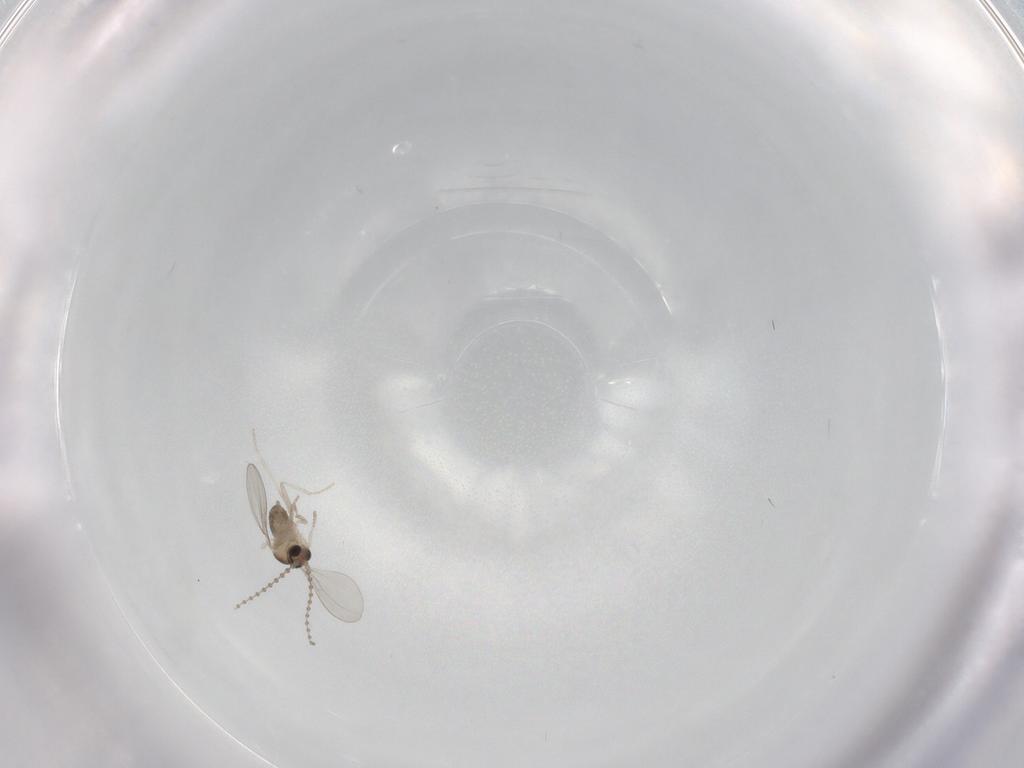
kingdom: Animalia
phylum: Arthropoda
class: Insecta
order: Diptera
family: Cecidomyiidae
